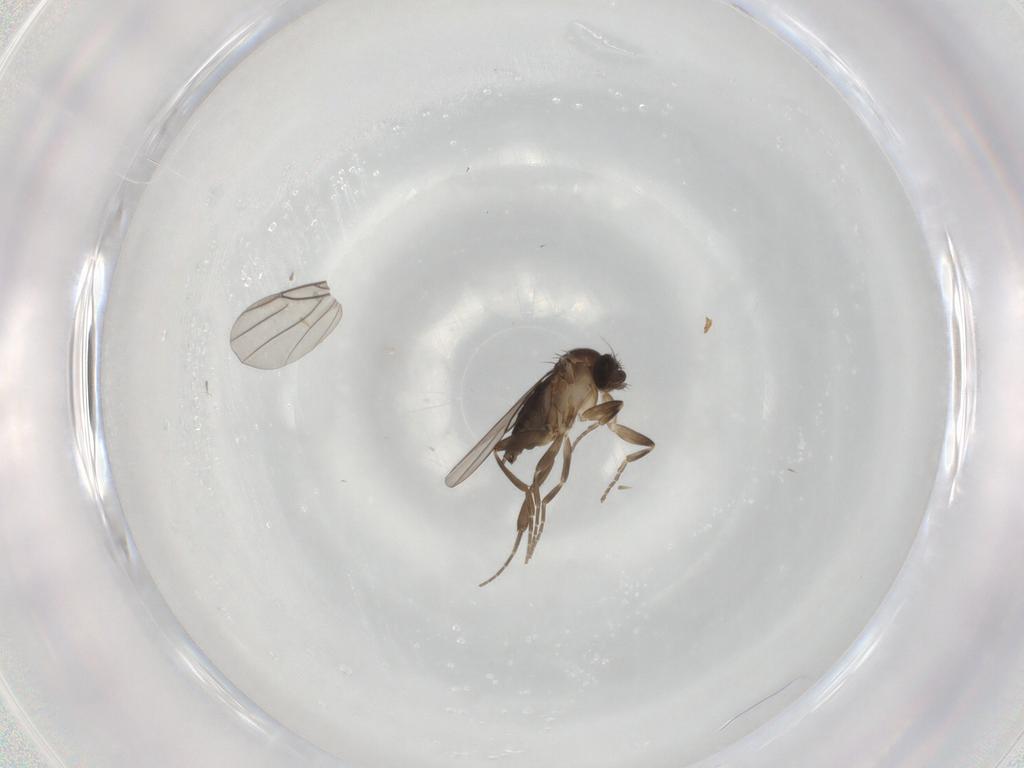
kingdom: Animalia
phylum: Arthropoda
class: Insecta
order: Diptera
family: Phoridae
